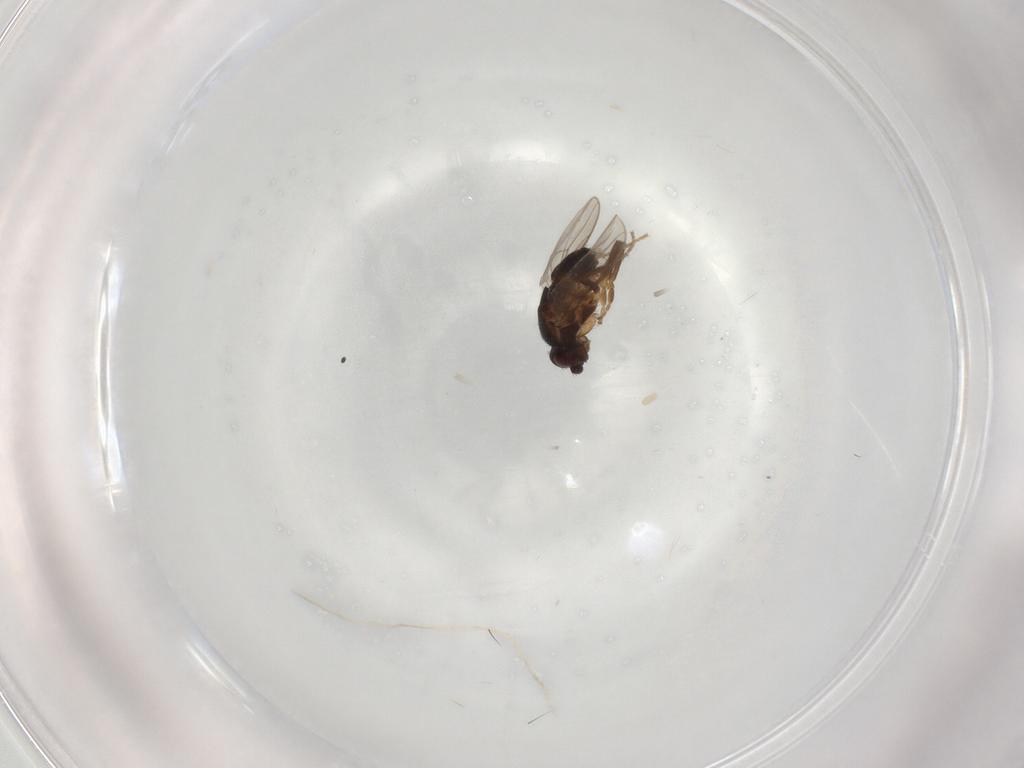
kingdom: Animalia
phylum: Arthropoda
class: Insecta
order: Diptera
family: Sphaeroceridae
